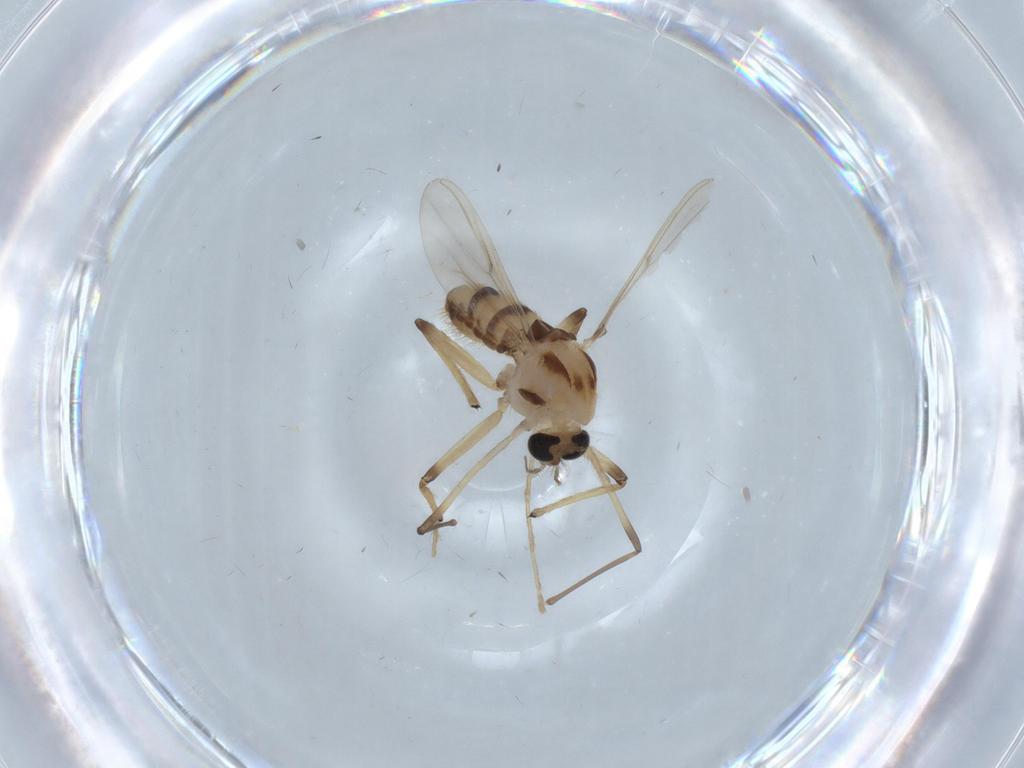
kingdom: Animalia
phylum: Arthropoda
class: Insecta
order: Diptera
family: Chironomidae
